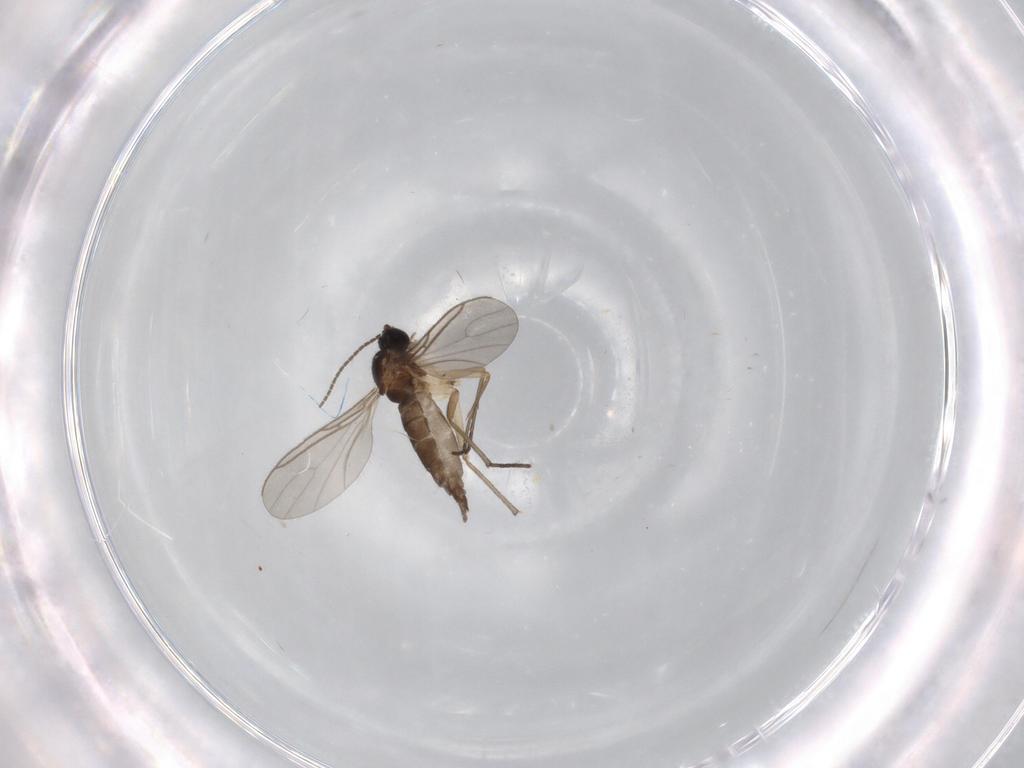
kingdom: Animalia
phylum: Arthropoda
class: Insecta
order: Diptera
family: Sciaridae
